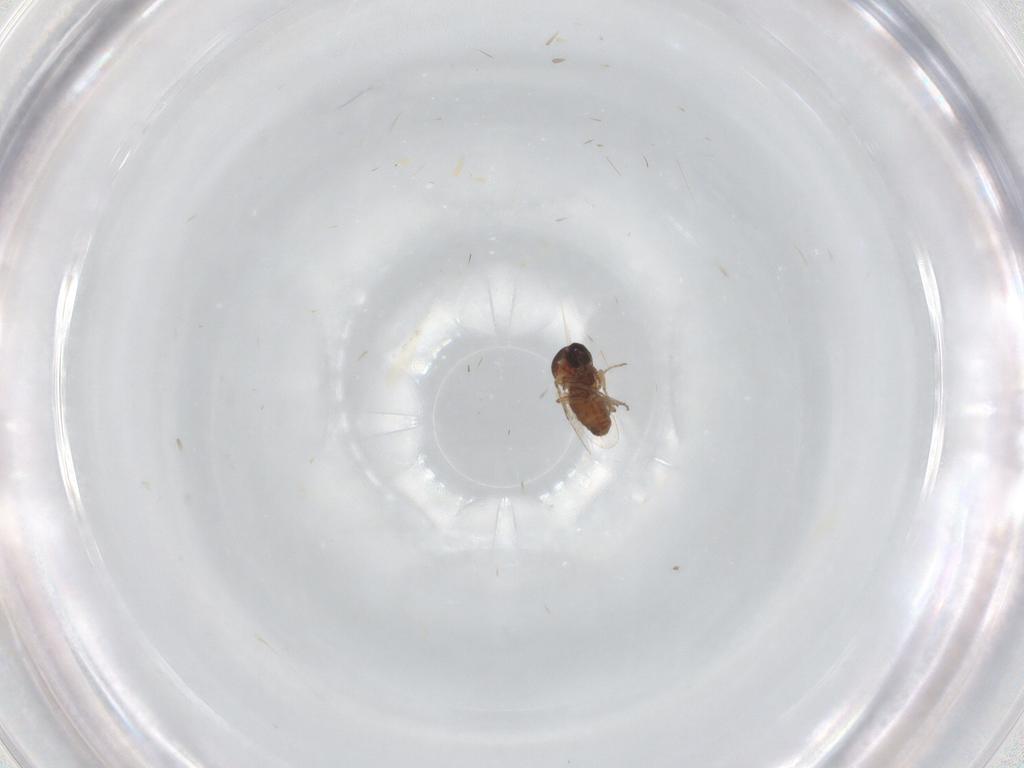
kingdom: Animalia
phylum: Arthropoda
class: Insecta
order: Diptera
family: Ceratopogonidae
